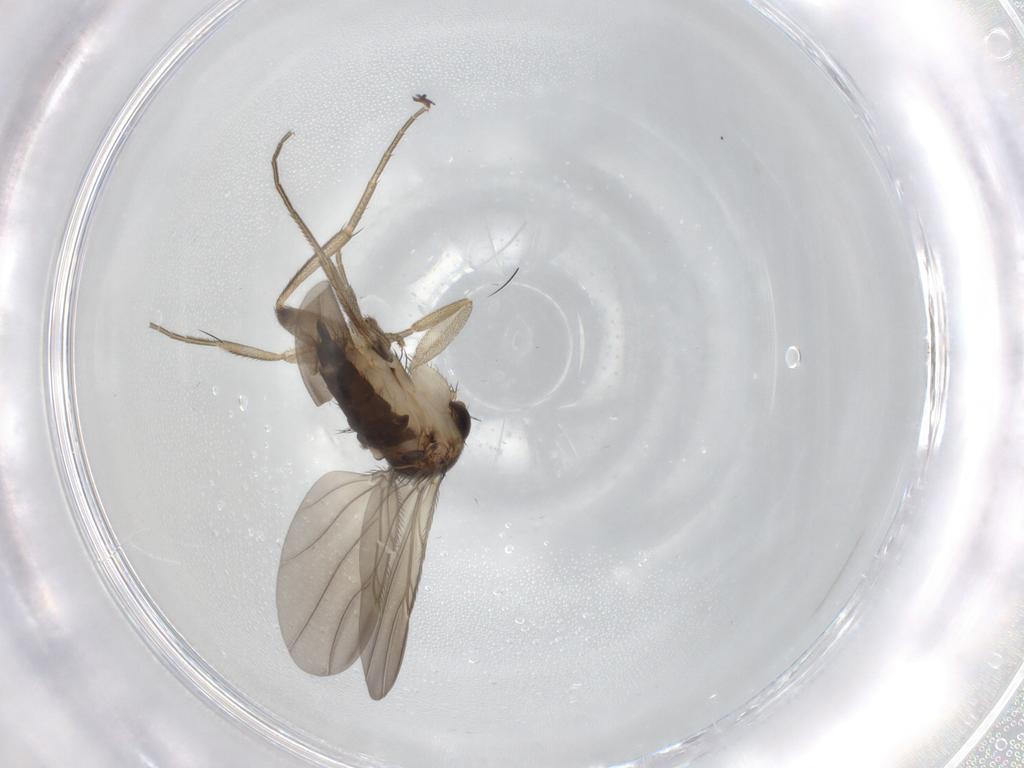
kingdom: Animalia
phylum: Arthropoda
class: Insecta
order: Diptera
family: Phoridae
